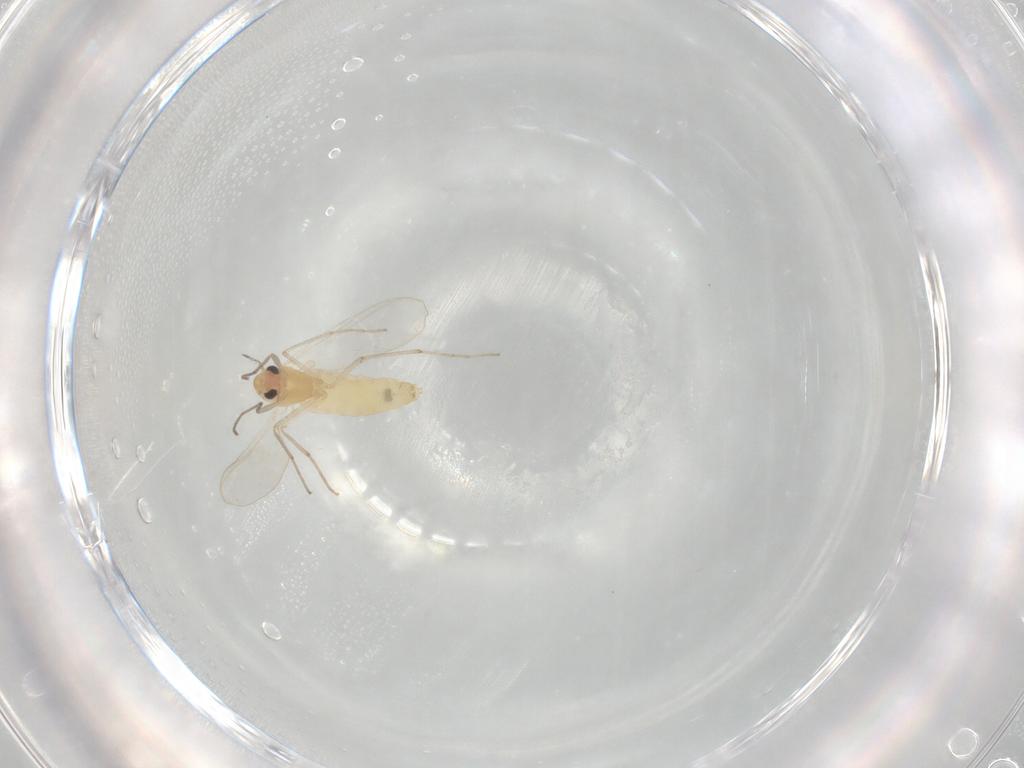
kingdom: Animalia
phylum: Arthropoda
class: Insecta
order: Diptera
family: Chironomidae
